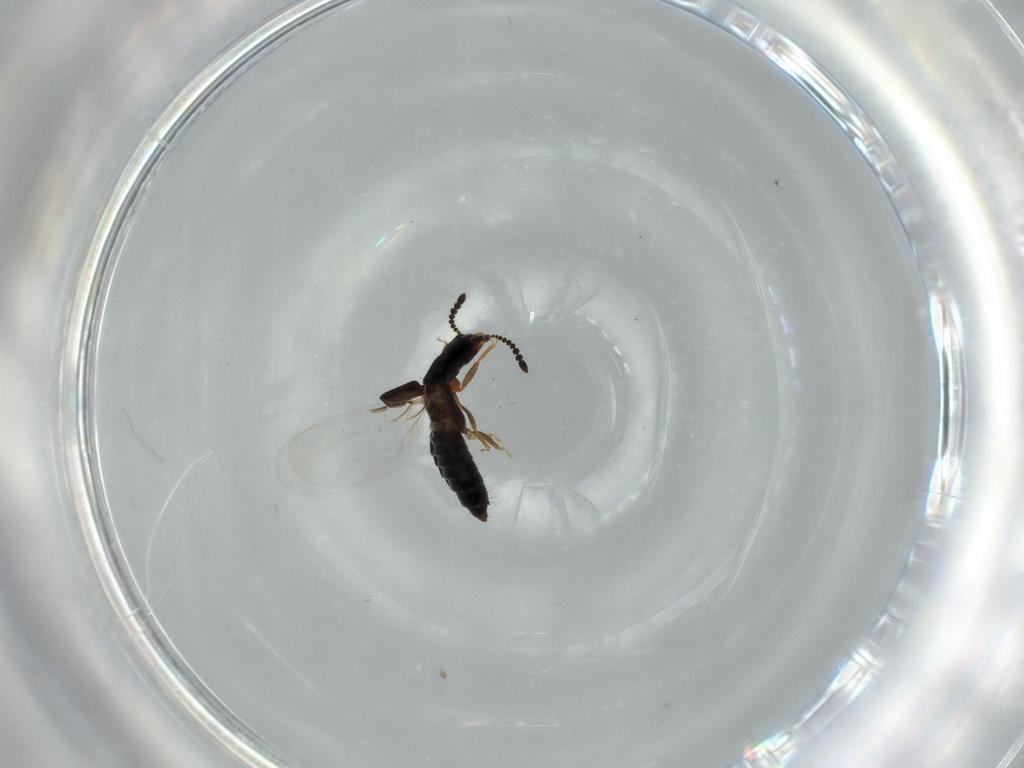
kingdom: Animalia
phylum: Arthropoda
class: Insecta
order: Coleoptera
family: Staphylinidae
